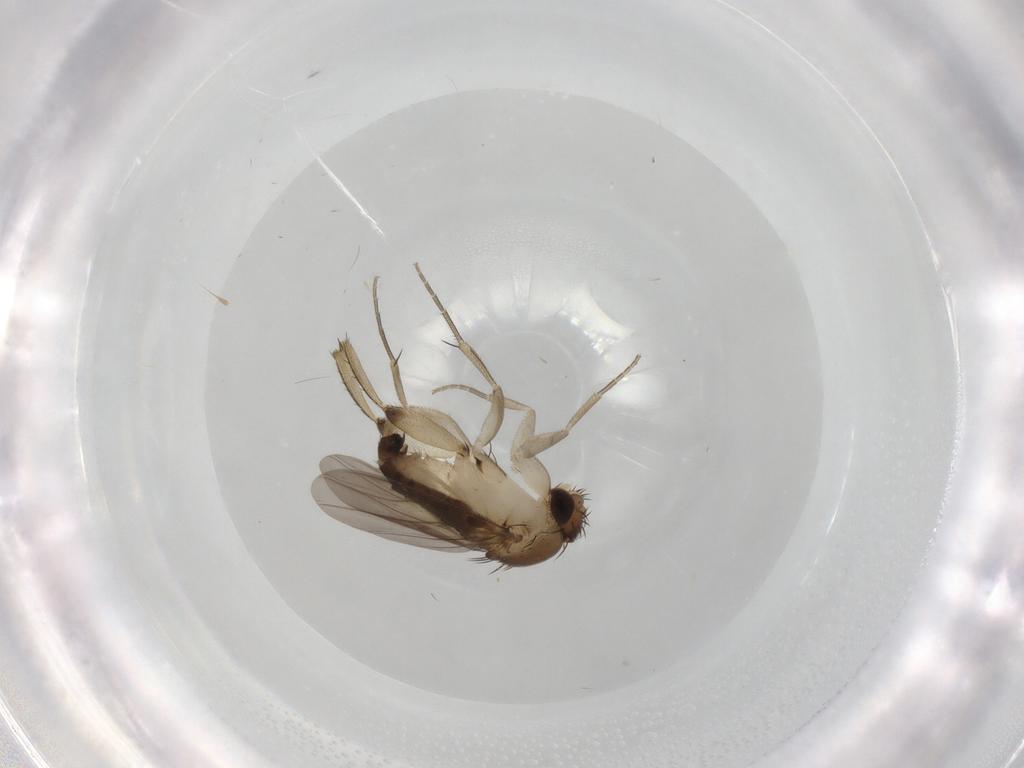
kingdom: Animalia
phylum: Arthropoda
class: Insecta
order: Diptera
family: Phoridae
